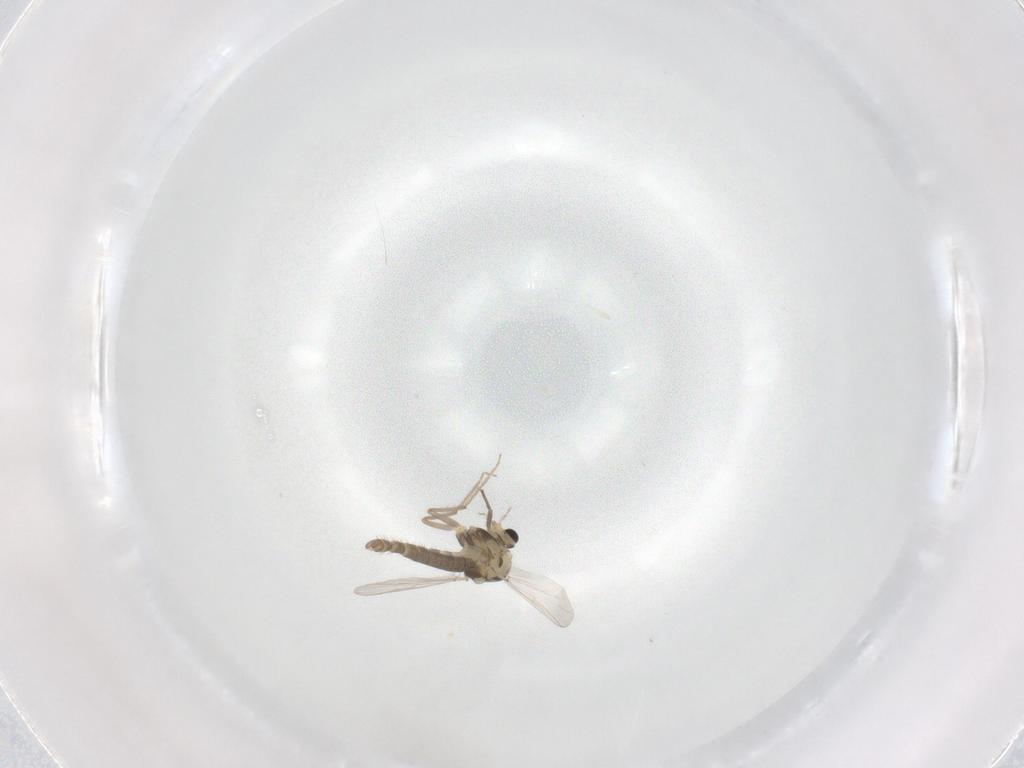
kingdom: Animalia
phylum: Arthropoda
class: Insecta
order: Diptera
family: Chironomidae
